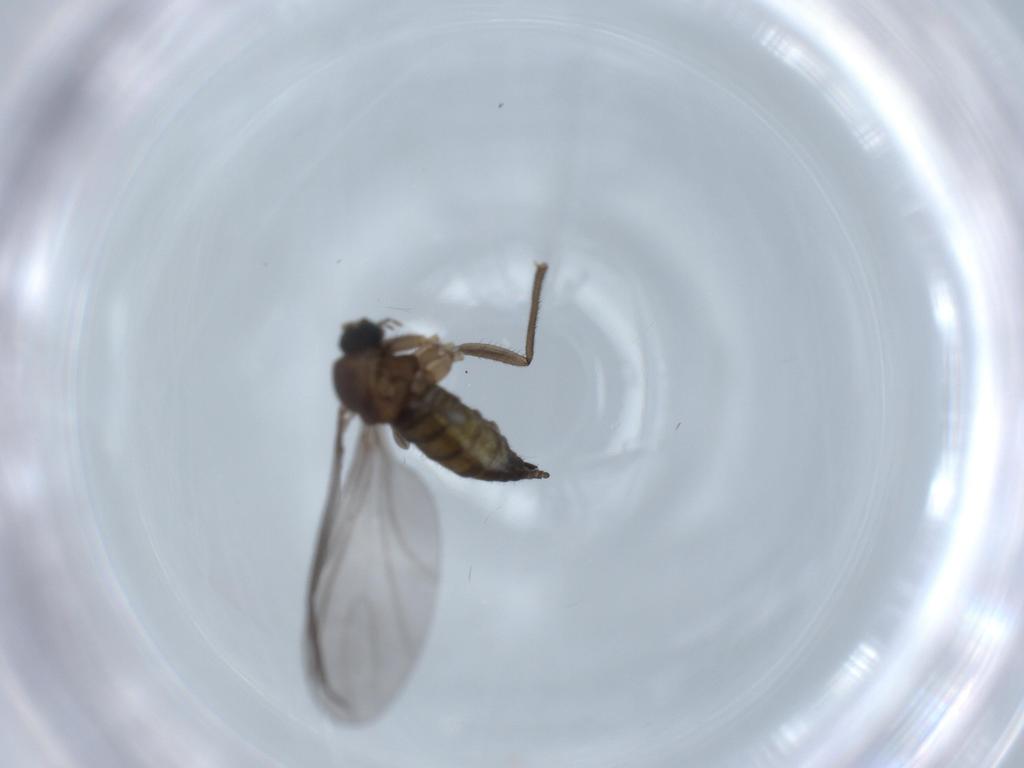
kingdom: Animalia
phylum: Arthropoda
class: Insecta
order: Diptera
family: Sciaridae
